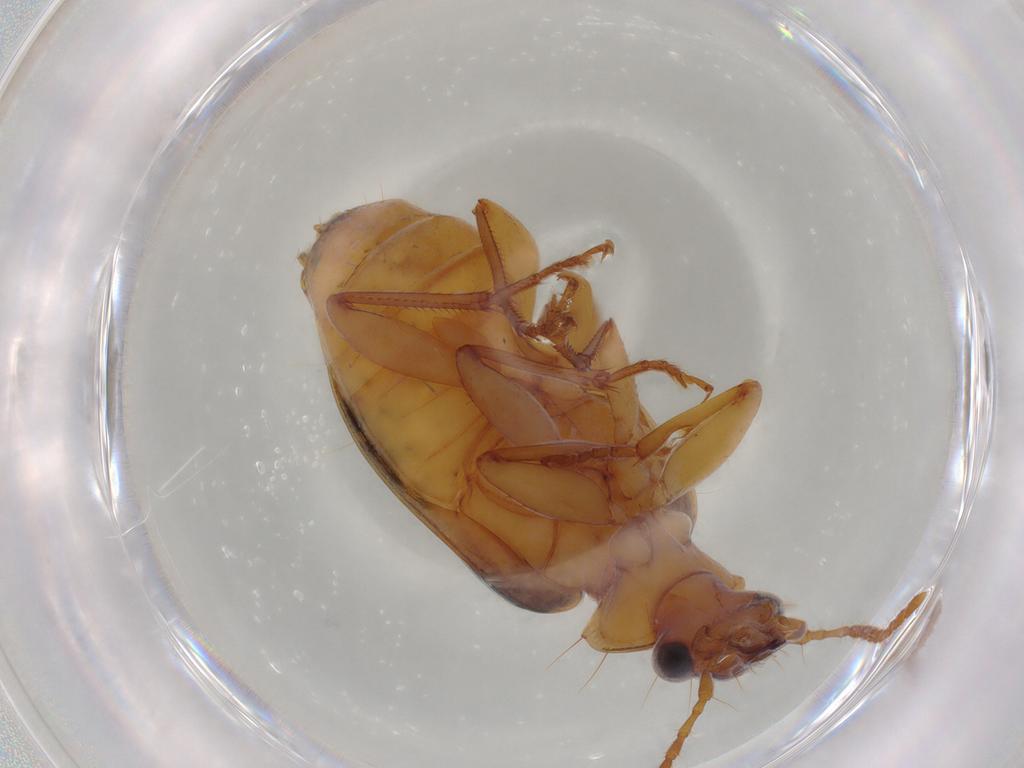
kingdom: Animalia
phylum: Arthropoda
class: Insecta
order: Coleoptera
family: Carabidae
